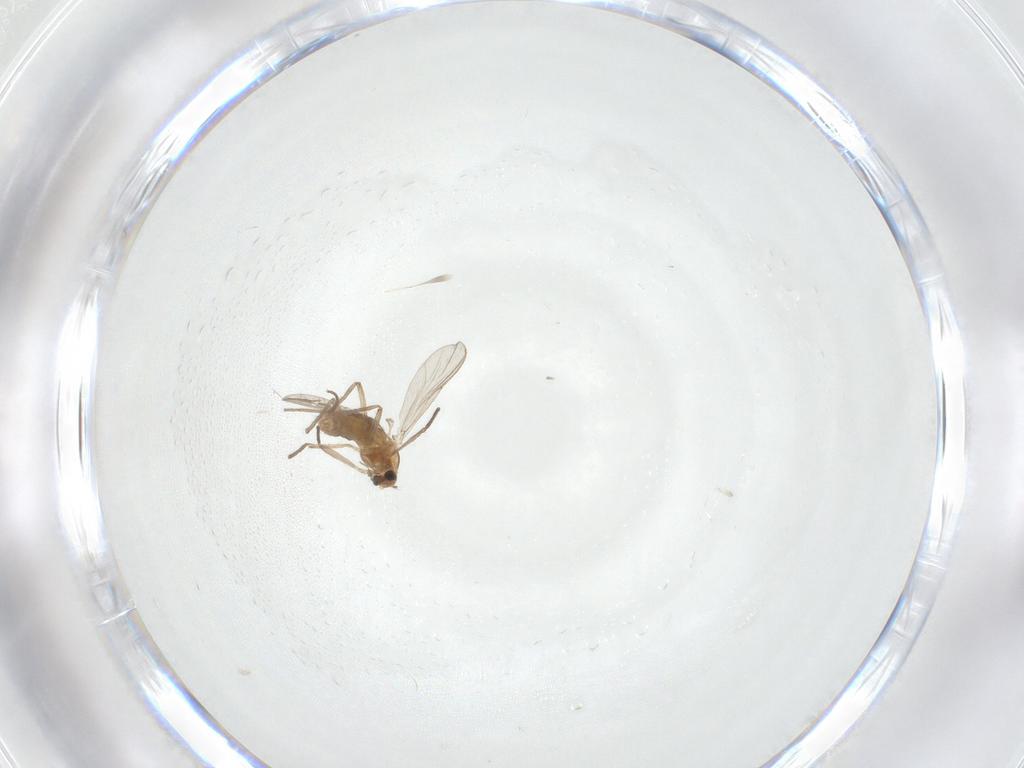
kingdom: Animalia
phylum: Arthropoda
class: Insecta
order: Diptera
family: Chironomidae
